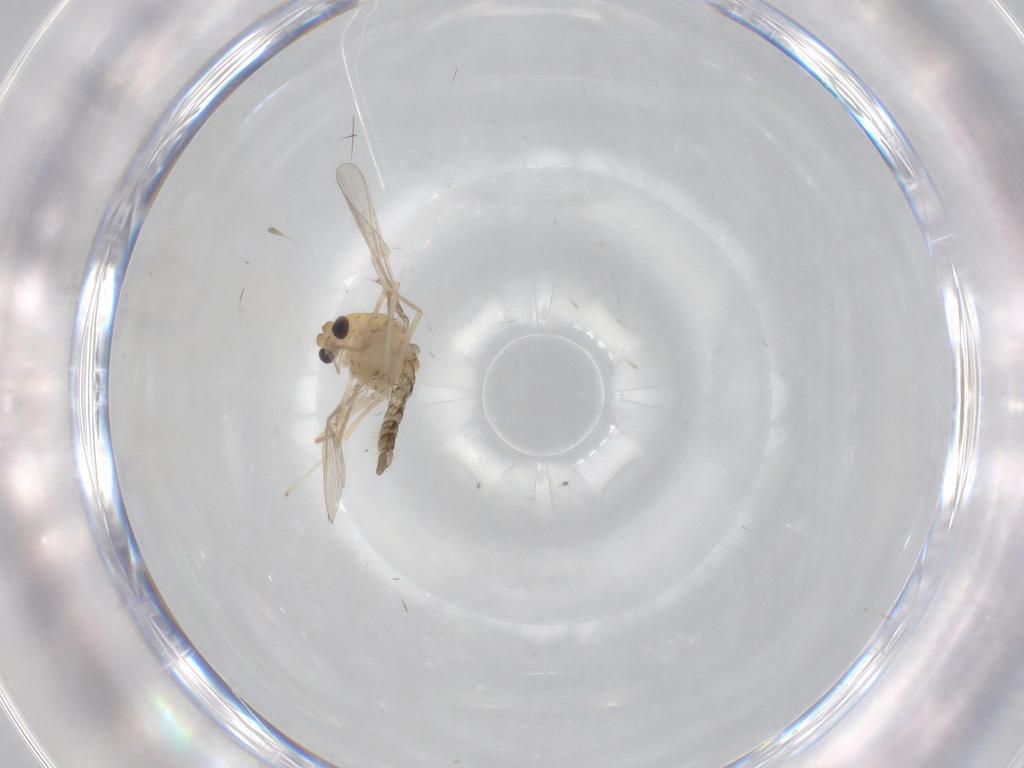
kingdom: Animalia
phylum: Arthropoda
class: Insecta
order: Diptera
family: Chironomidae
